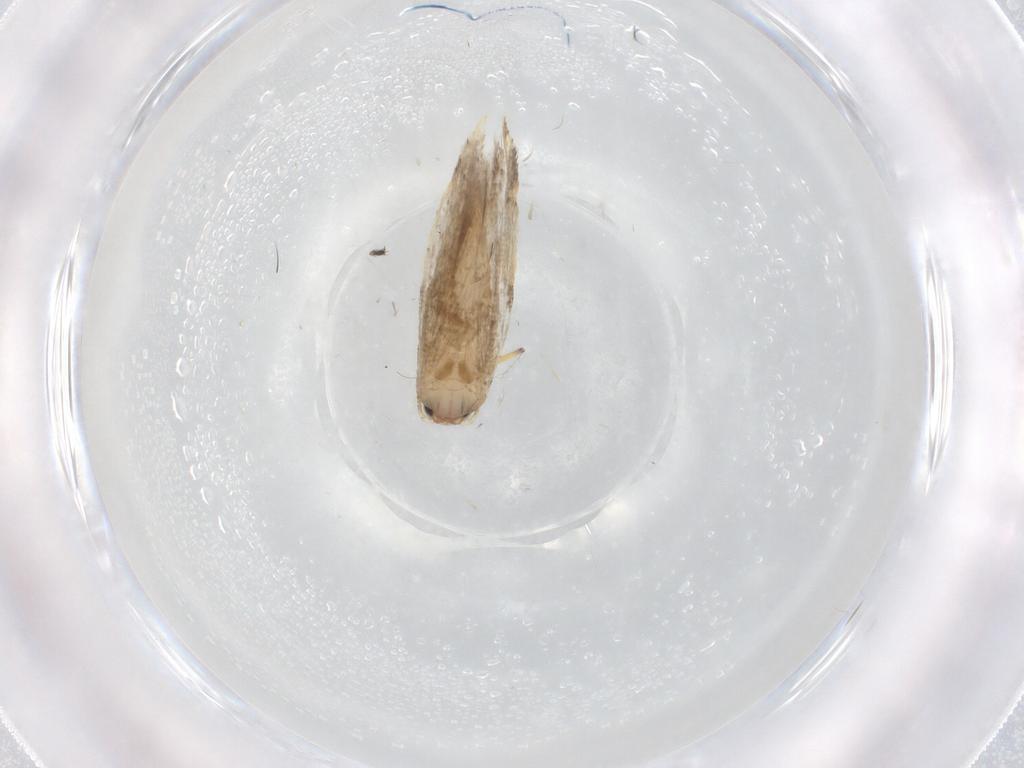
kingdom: Animalia
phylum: Arthropoda
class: Insecta
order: Lepidoptera
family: Tineidae
